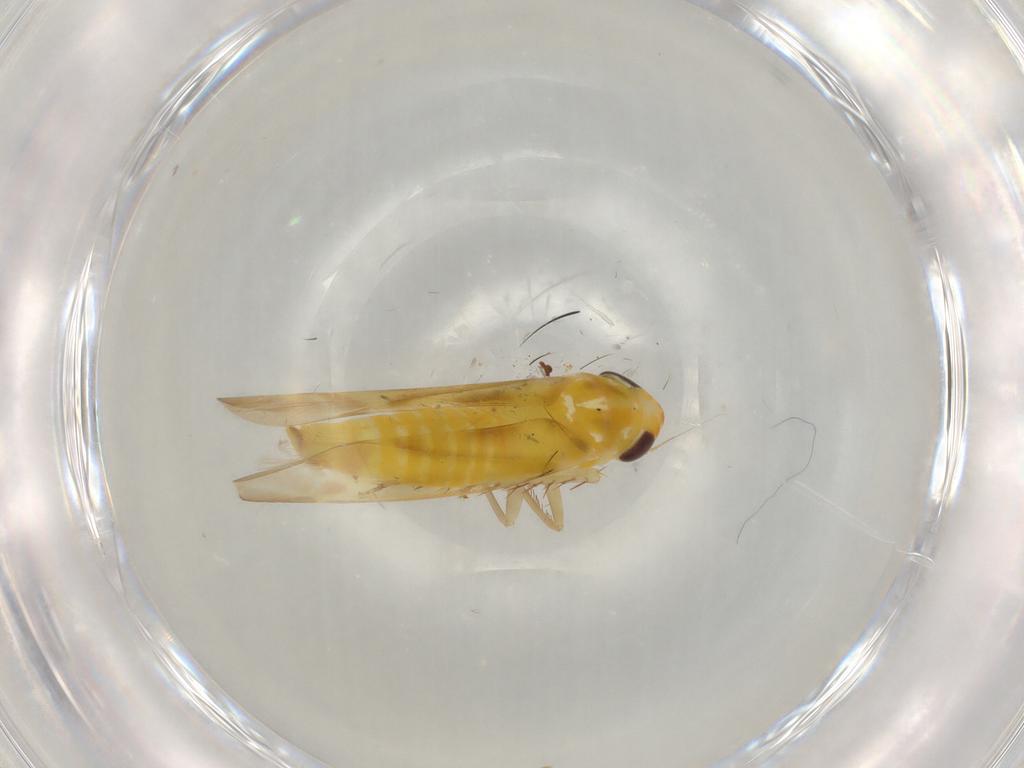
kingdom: Animalia
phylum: Arthropoda
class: Insecta
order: Hemiptera
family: Cicadellidae
